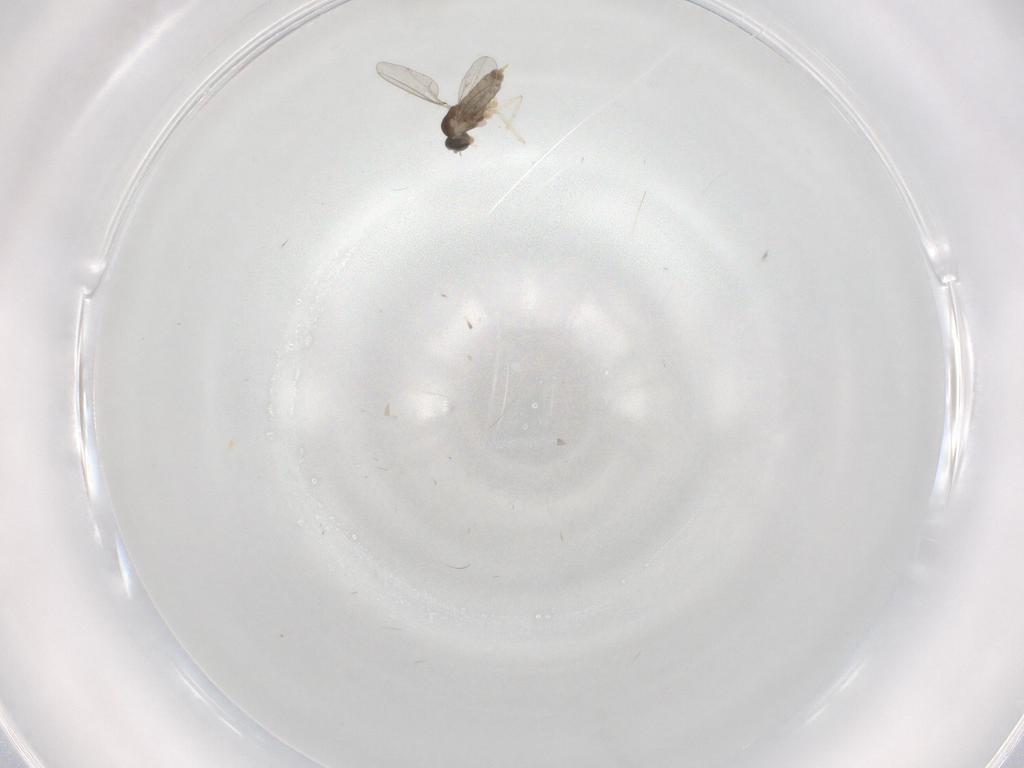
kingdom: Animalia
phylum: Arthropoda
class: Insecta
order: Diptera
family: Cecidomyiidae
